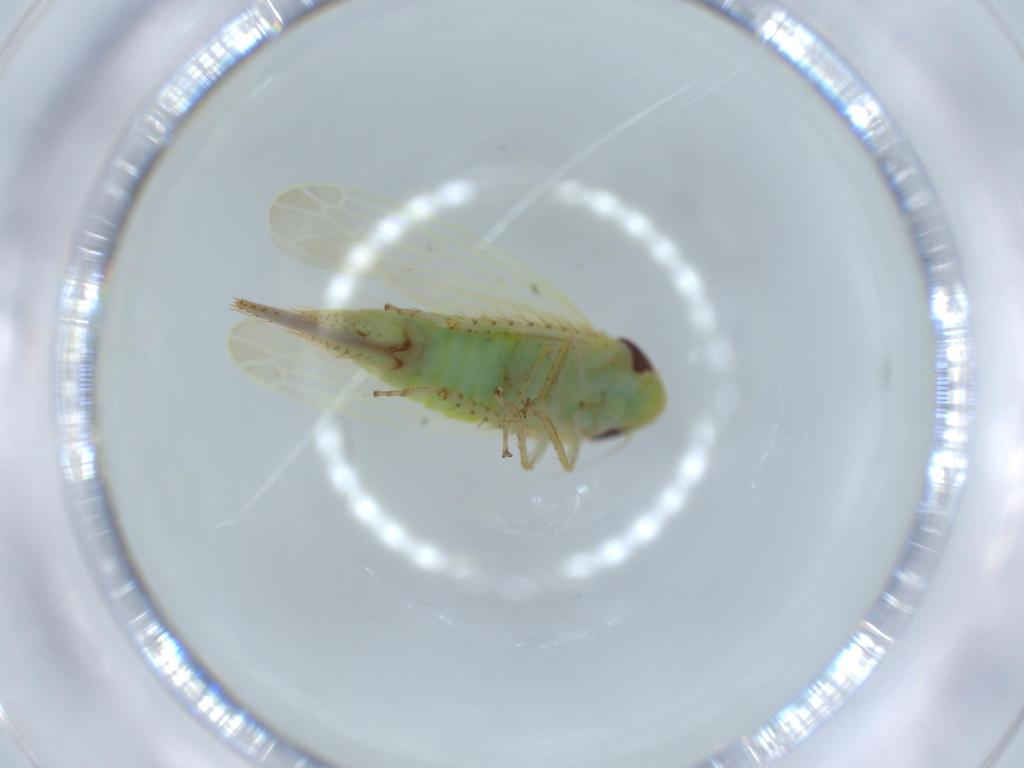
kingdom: Animalia
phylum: Arthropoda
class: Insecta
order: Hemiptera
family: Cicadellidae
